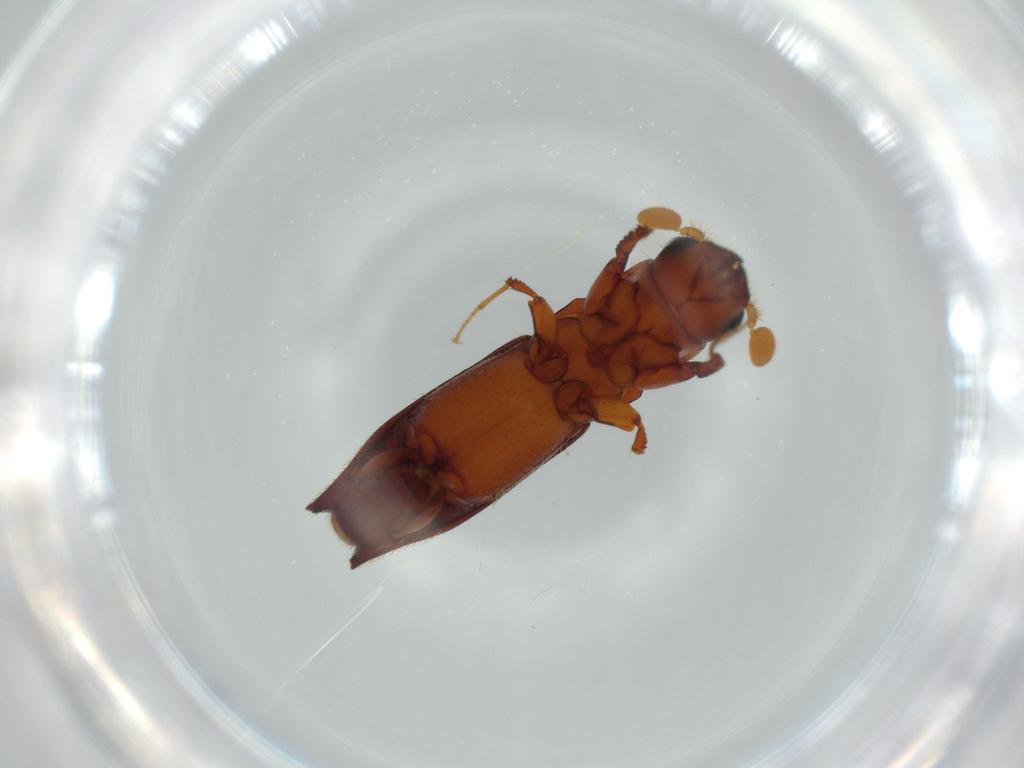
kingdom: Animalia
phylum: Arthropoda
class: Insecta
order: Coleoptera
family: Curculionidae
